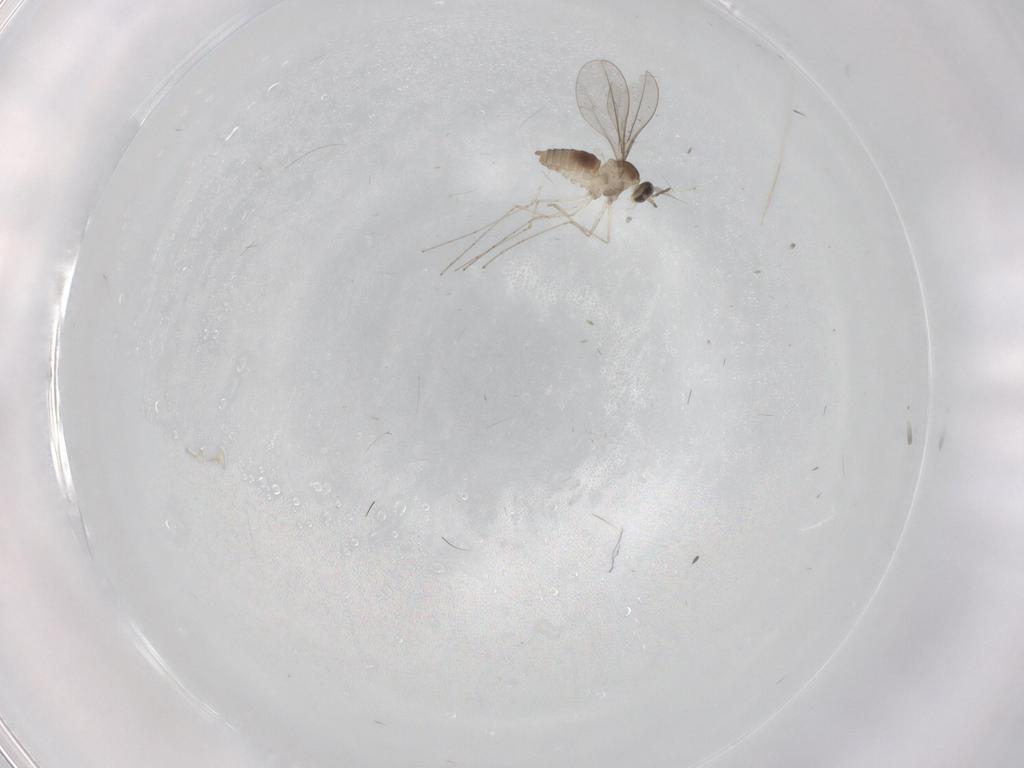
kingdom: Animalia
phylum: Arthropoda
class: Insecta
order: Diptera
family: Cecidomyiidae
